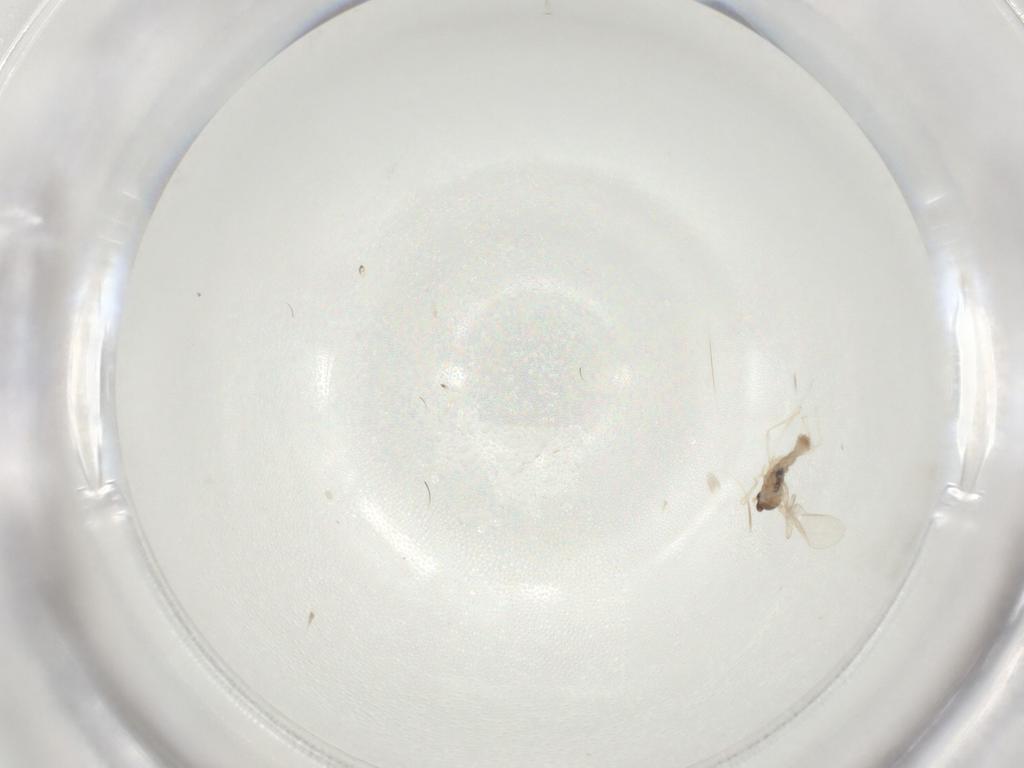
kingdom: Animalia
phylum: Arthropoda
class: Insecta
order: Diptera
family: Cecidomyiidae
